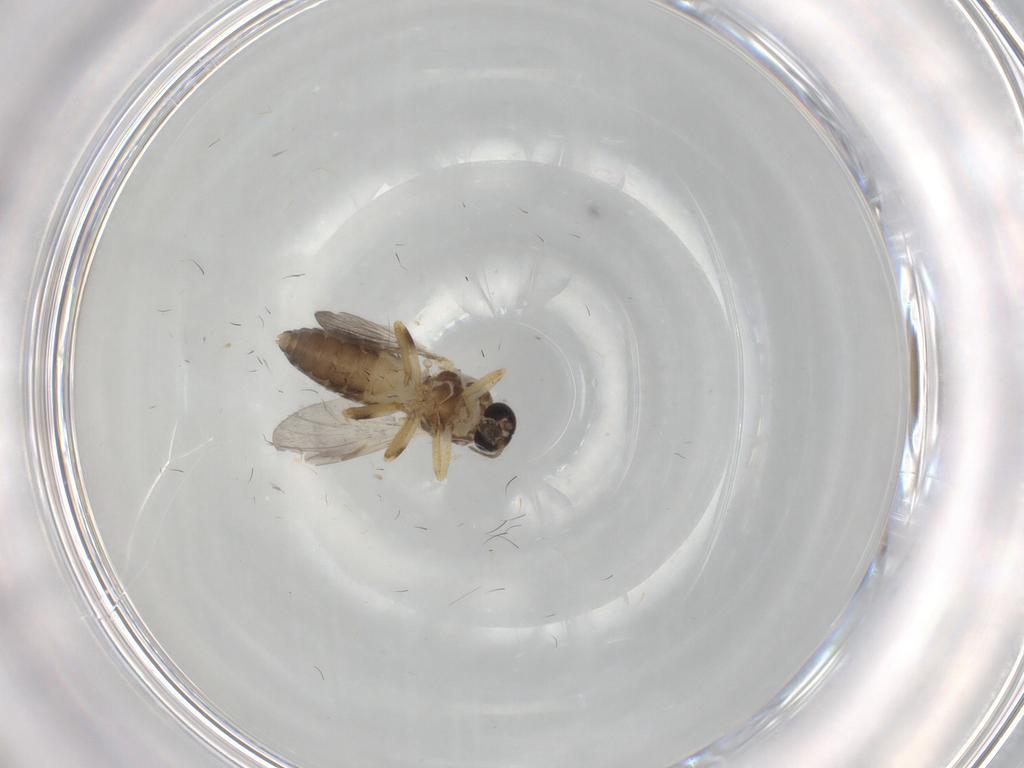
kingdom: Animalia
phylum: Arthropoda
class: Insecta
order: Diptera
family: Ceratopogonidae
